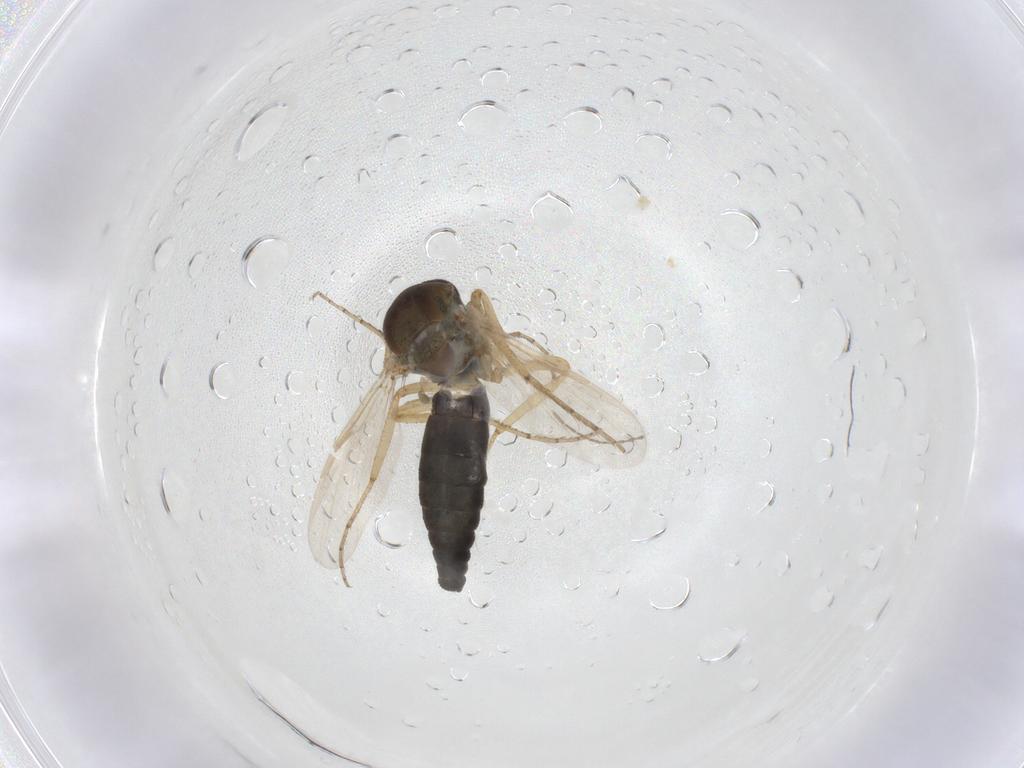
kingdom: Animalia
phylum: Arthropoda
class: Insecta
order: Diptera
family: Ceratopogonidae
